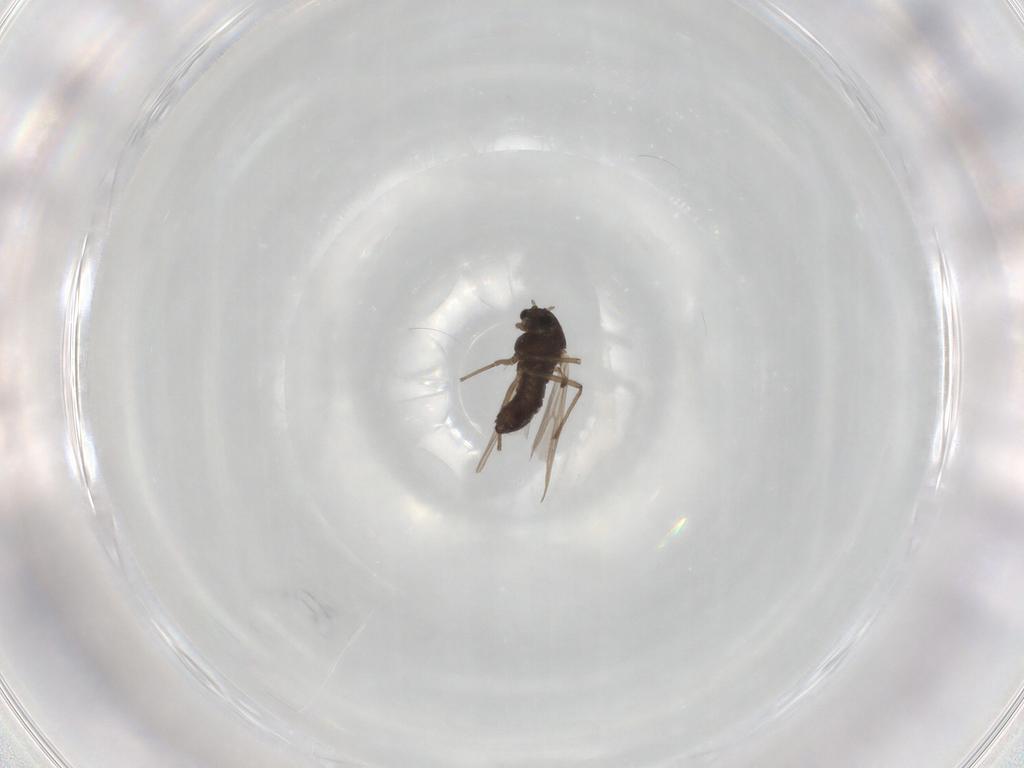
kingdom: Animalia
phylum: Arthropoda
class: Insecta
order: Diptera
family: Chironomidae
